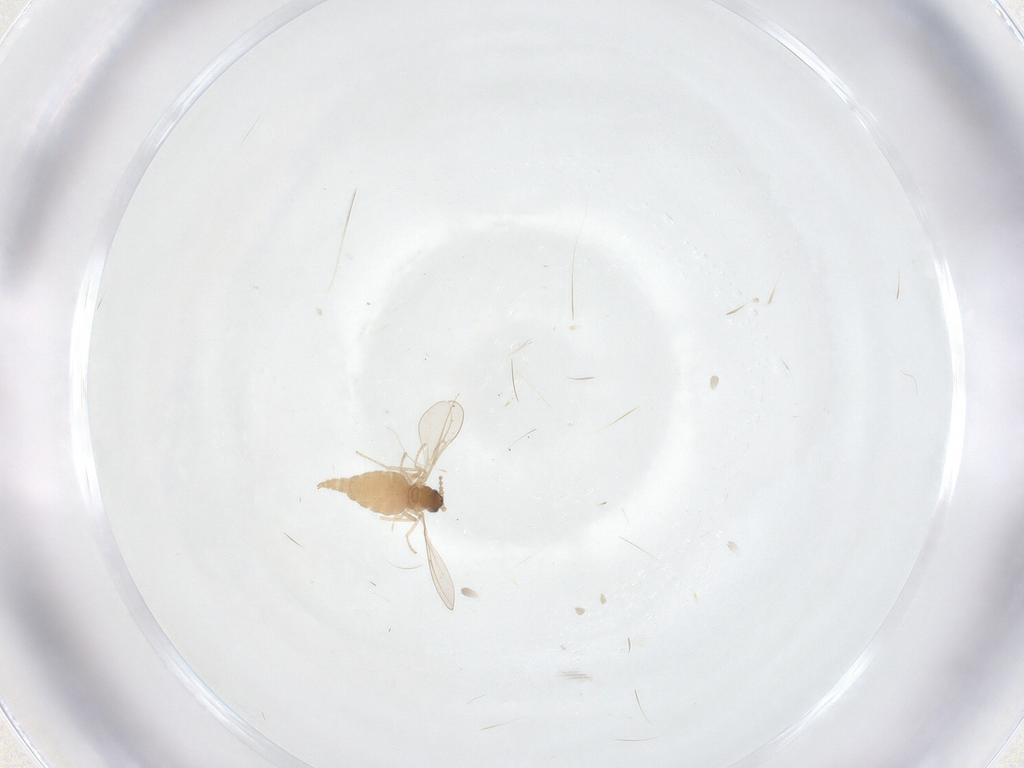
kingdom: Animalia
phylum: Arthropoda
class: Insecta
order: Diptera
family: Cecidomyiidae
